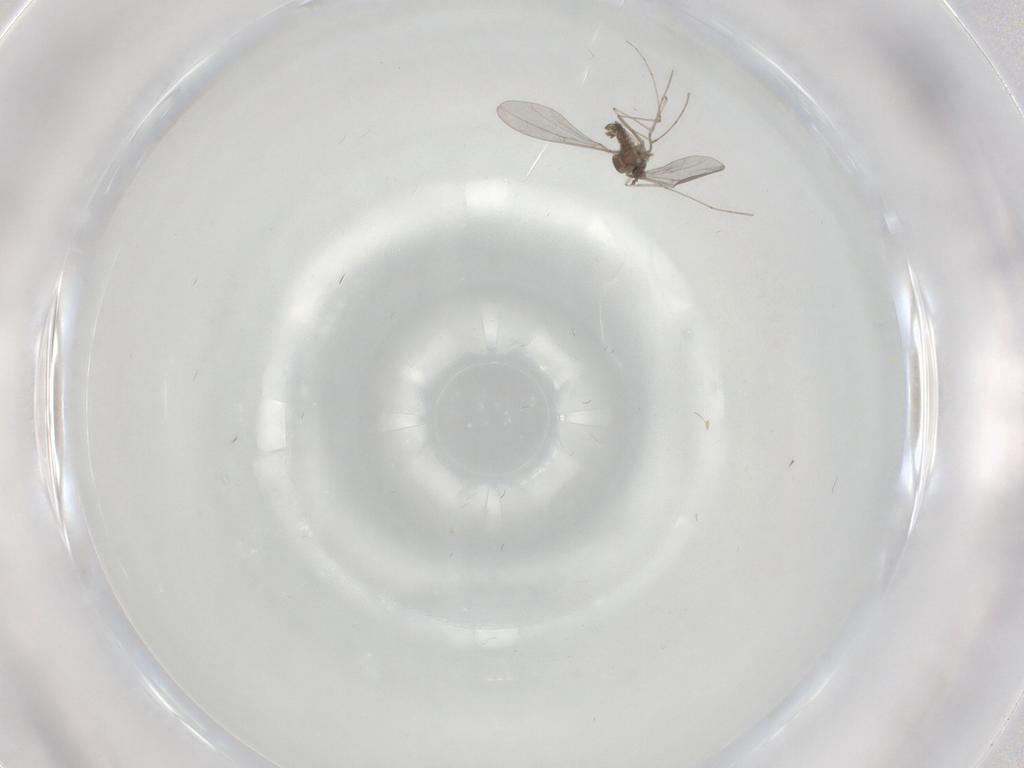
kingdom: Animalia
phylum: Arthropoda
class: Insecta
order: Diptera
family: Cecidomyiidae
